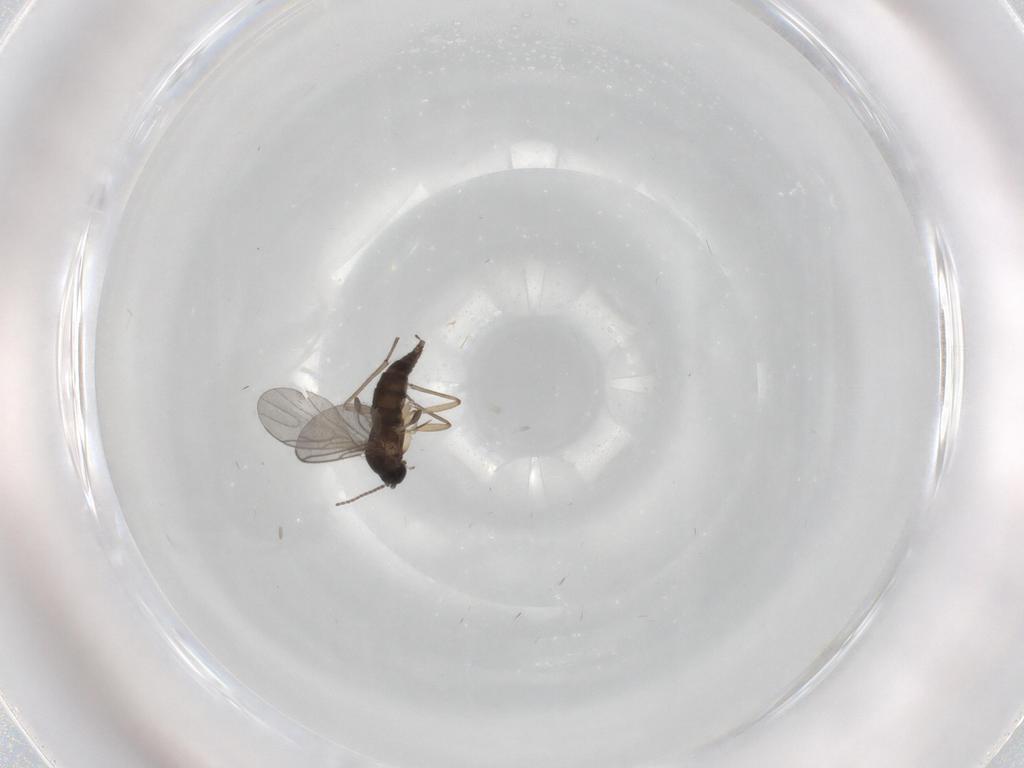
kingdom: Animalia
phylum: Arthropoda
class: Insecta
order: Diptera
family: Sciaridae
